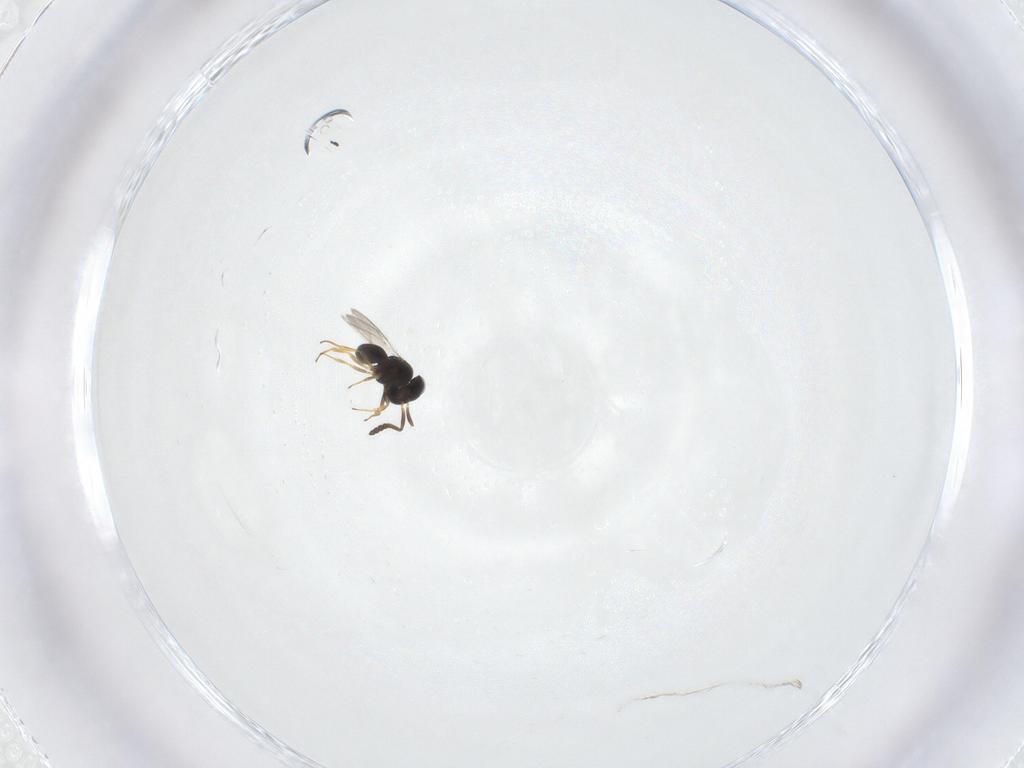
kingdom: Animalia
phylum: Arthropoda
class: Insecta
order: Hymenoptera
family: Scelionidae
